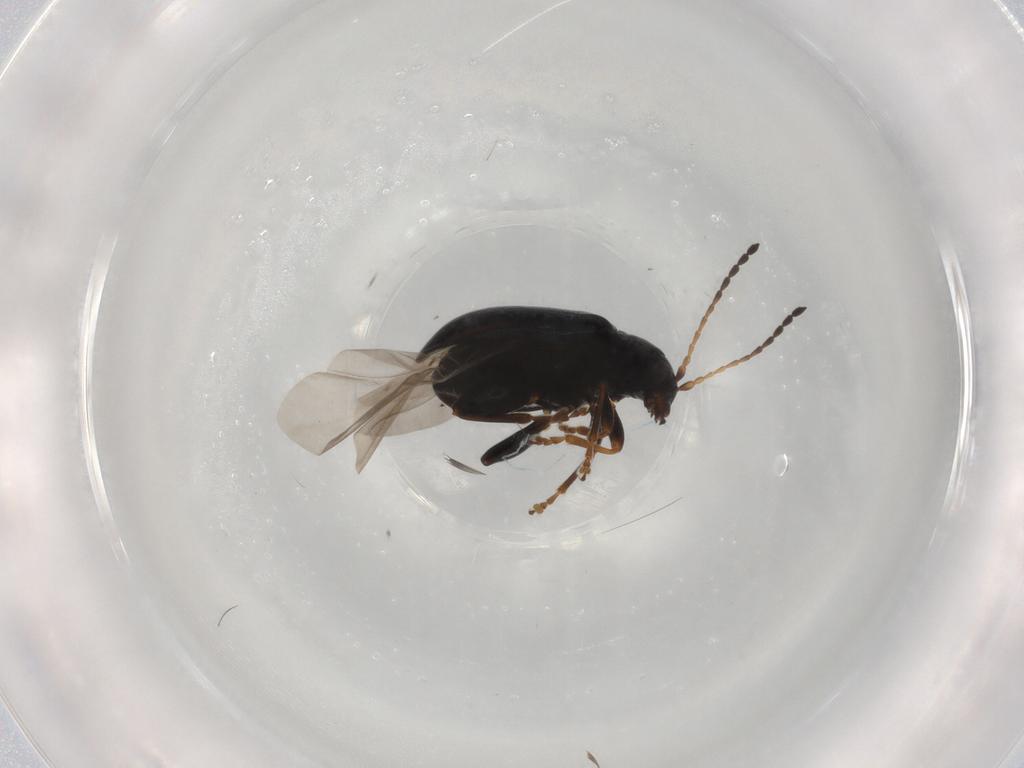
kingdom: Animalia
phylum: Arthropoda
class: Insecta
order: Coleoptera
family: Chrysomelidae
